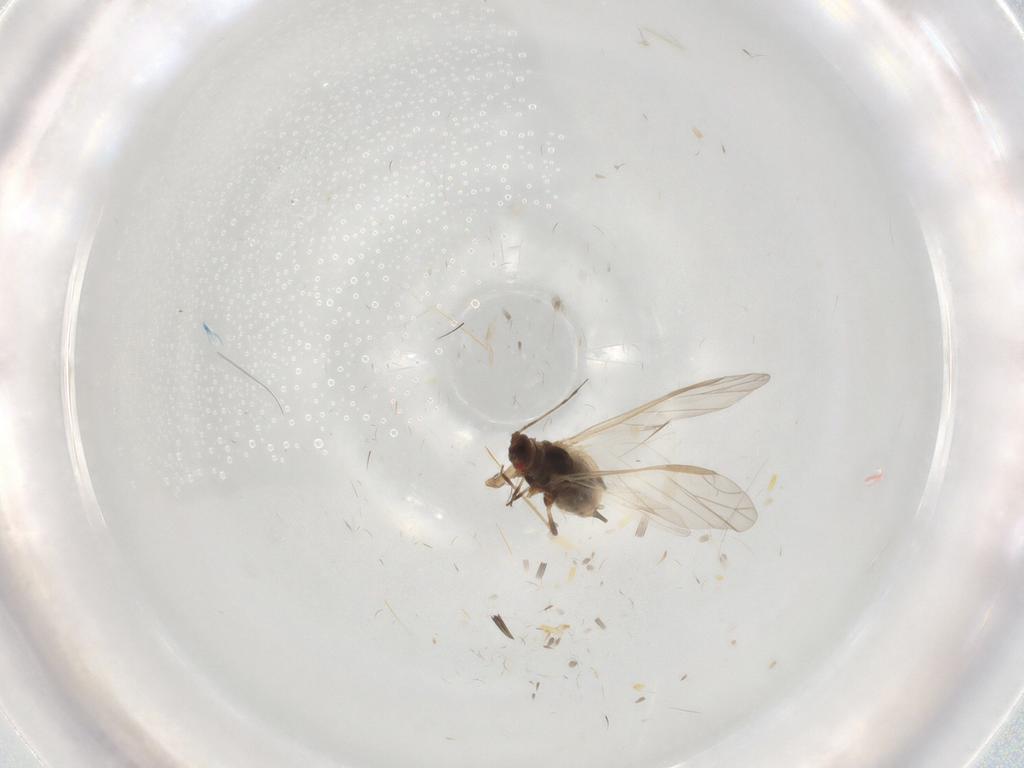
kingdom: Animalia
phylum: Arthropoda
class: Insecta
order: Hemiptera
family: Aphididae
